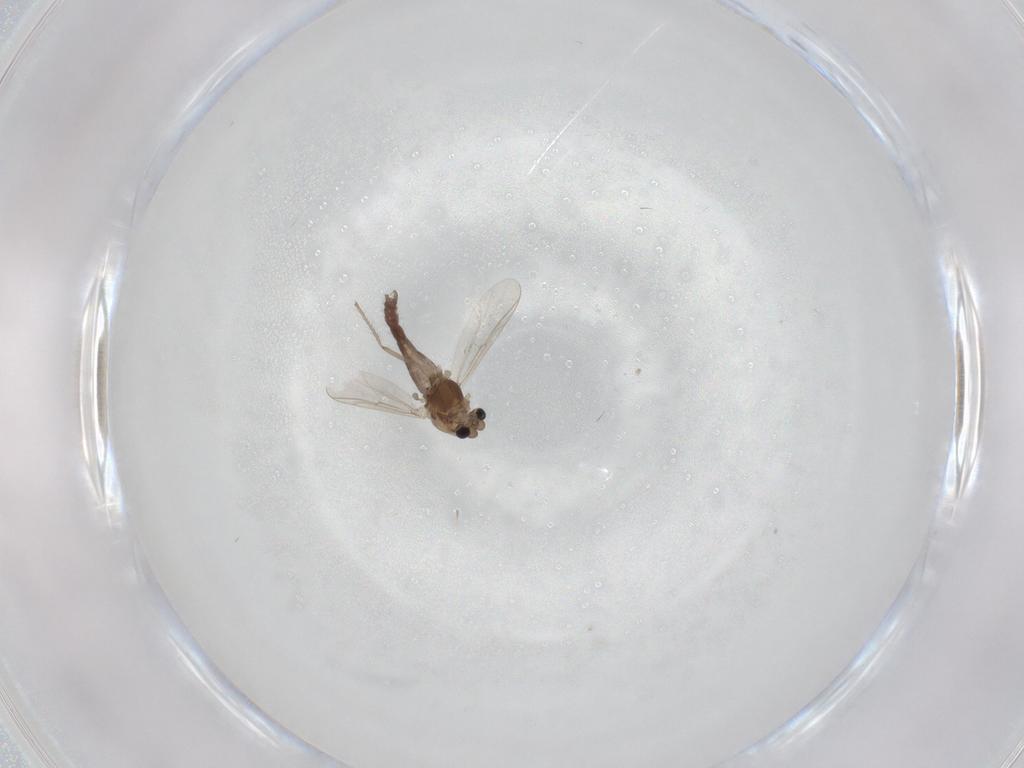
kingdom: Animalia
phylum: Arthropoda
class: Insecta
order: Diptera
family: Chironomidae
